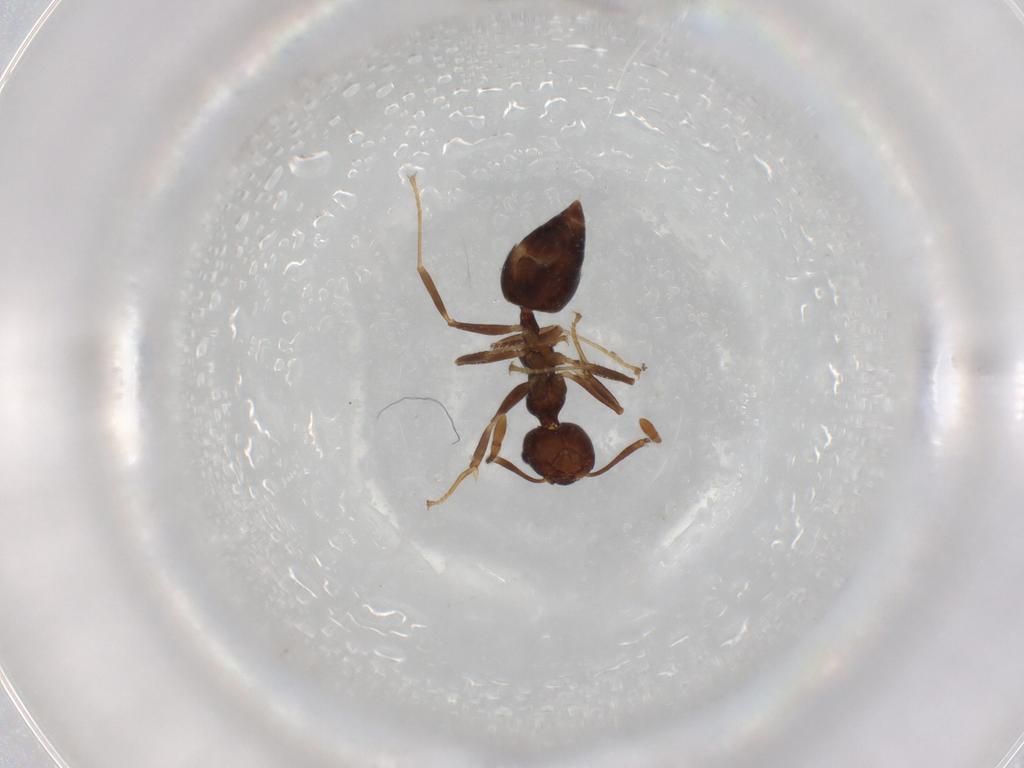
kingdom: Animalia
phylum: Arthropoda
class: Insecta
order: Hymenoptera
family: Formicidae
